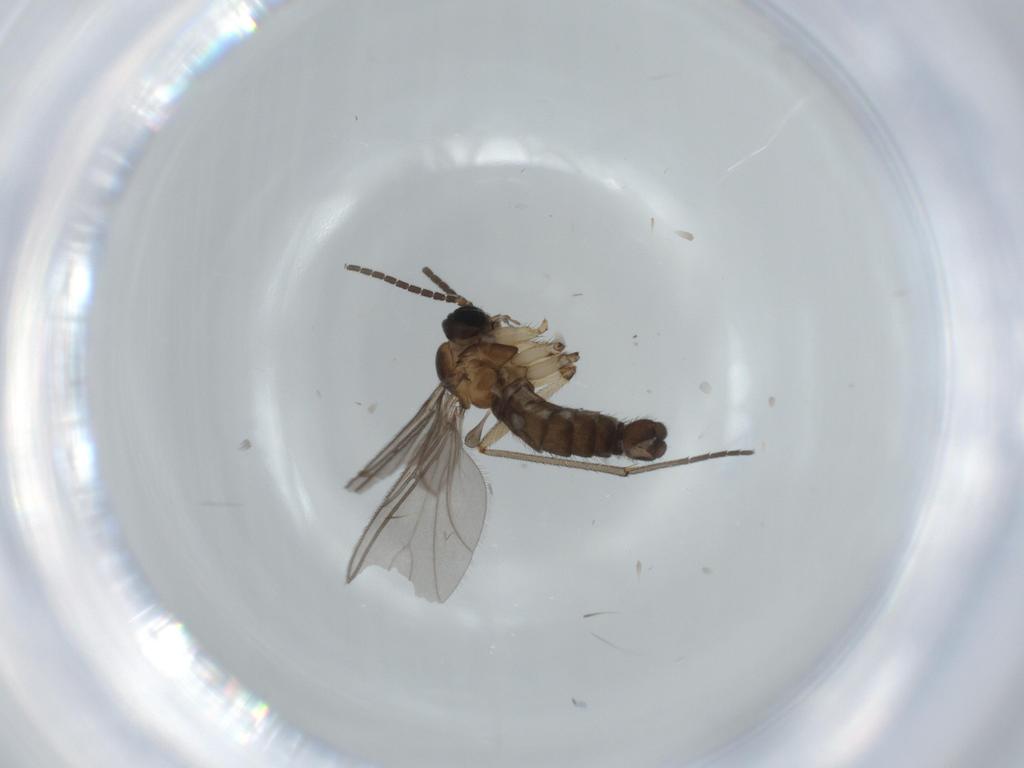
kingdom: Animalia
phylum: Arthropoda
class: Insecta
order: Diptera
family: Sciaridae
